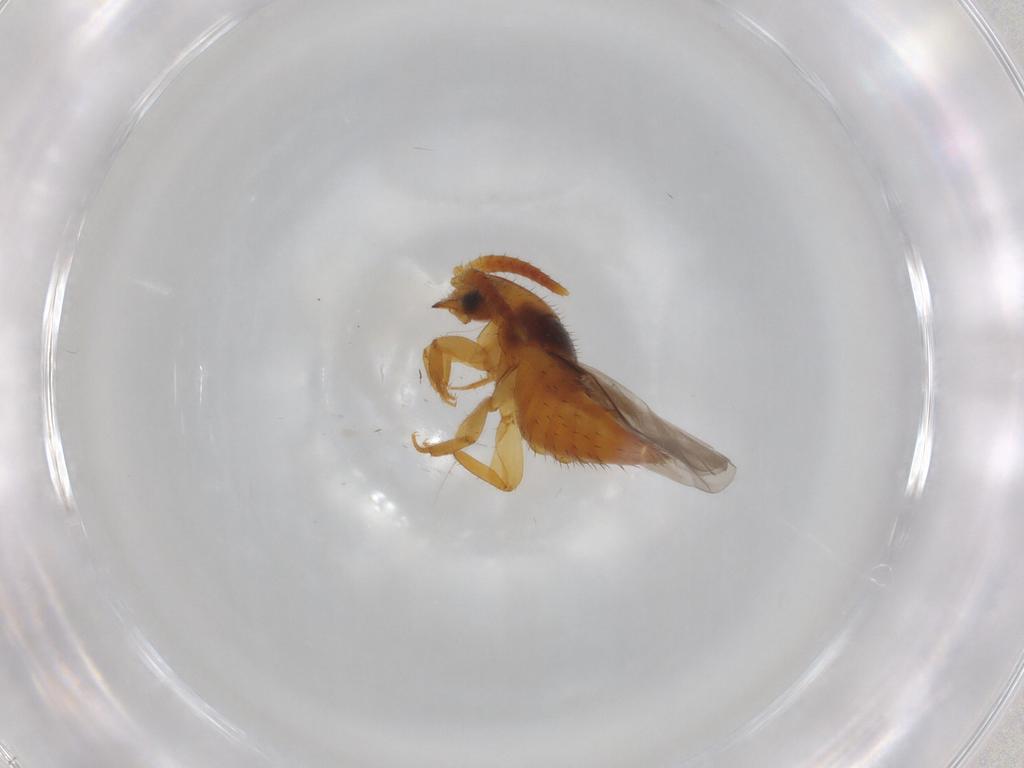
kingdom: Animalia
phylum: Arthropoda
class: Insecta
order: Coleoptera
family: Staphylinidae
